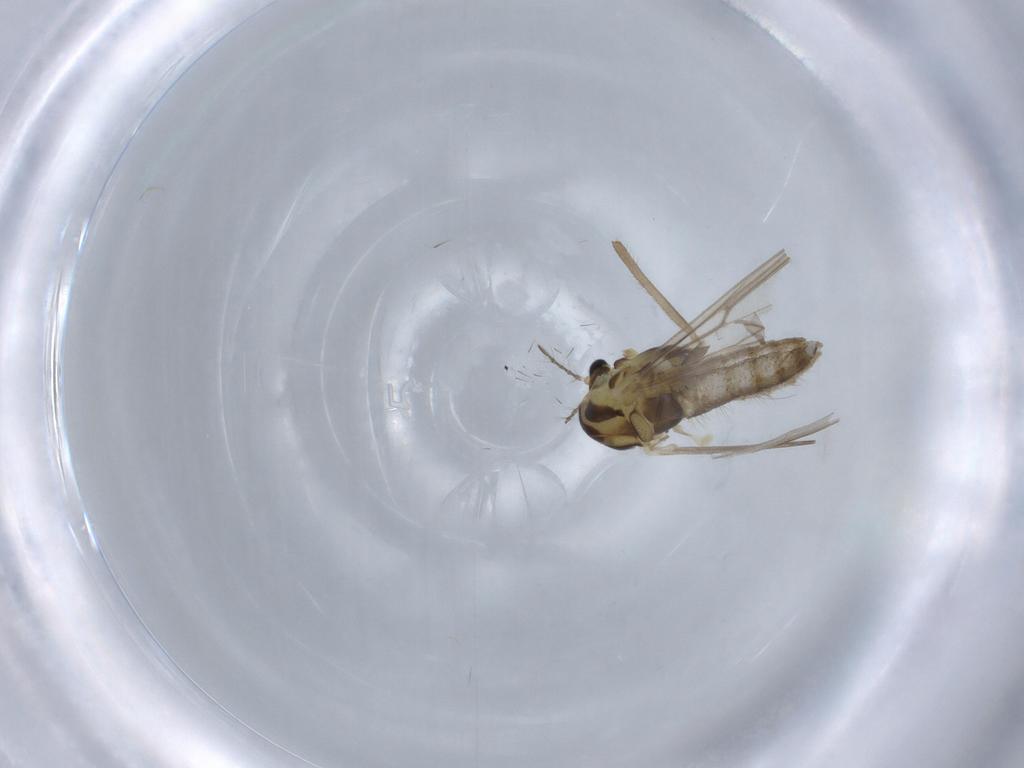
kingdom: Animalia
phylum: Arthropoda
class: Insecta
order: Diptera
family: Chironomidae
